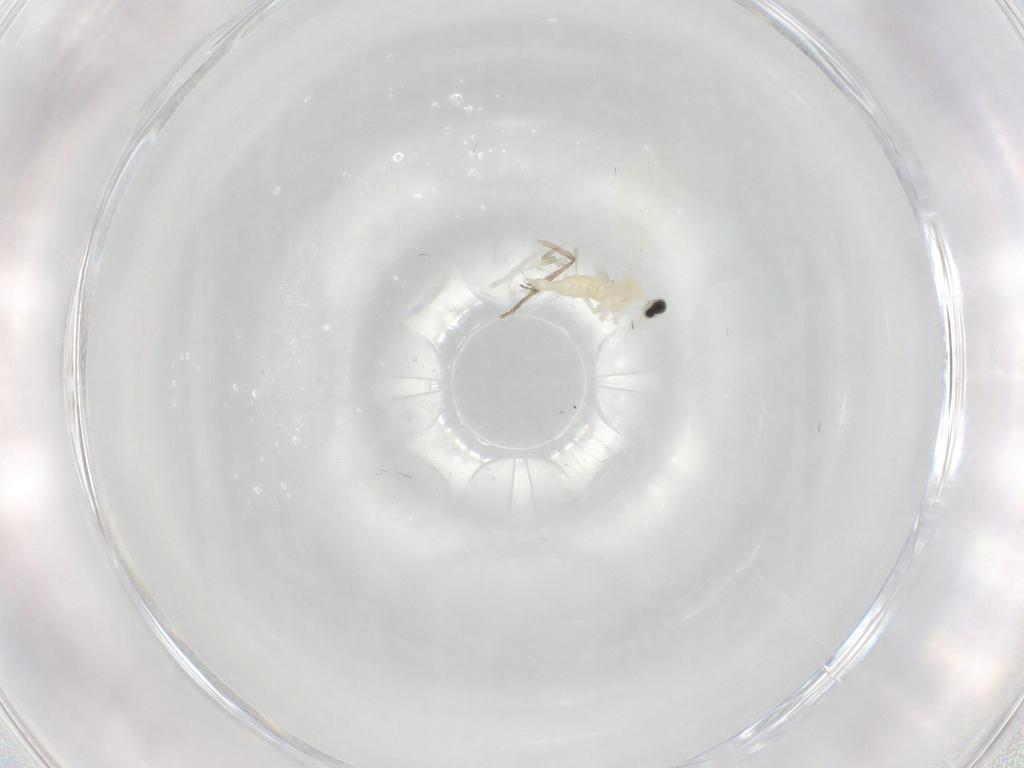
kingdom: Animalia
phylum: Arthropoda
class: Insecta
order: Diptera
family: Cecidomyiidae
